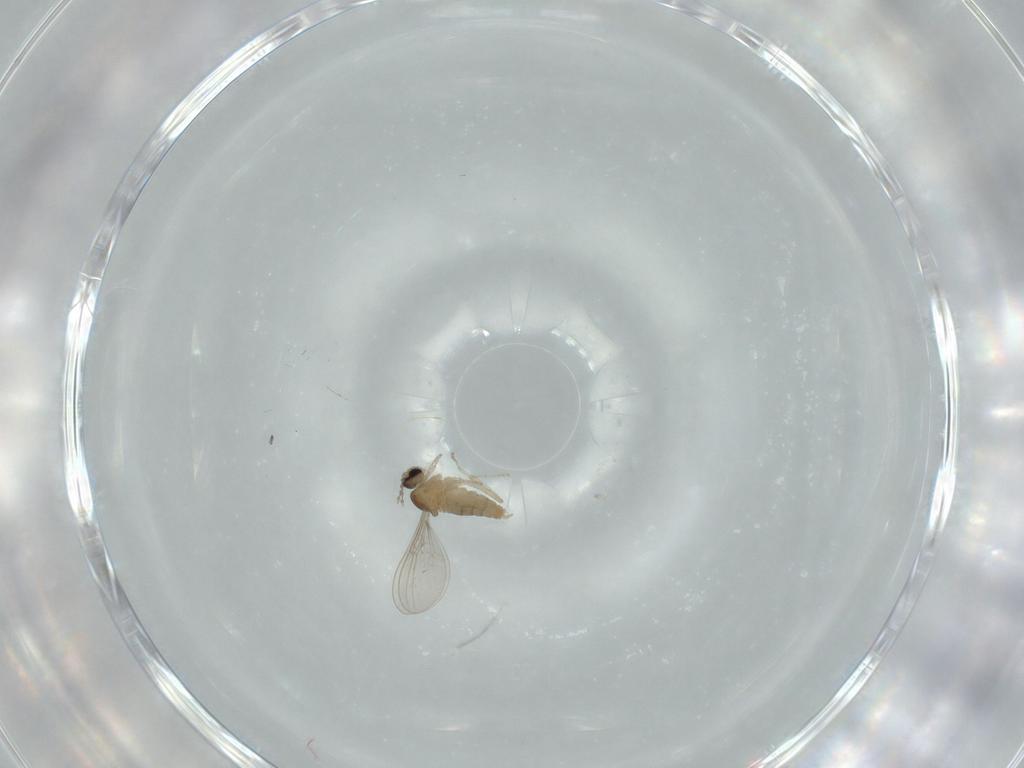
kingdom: Animalia
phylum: Arthropoda
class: Insecta
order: Diptera
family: Cecidomyiidae
